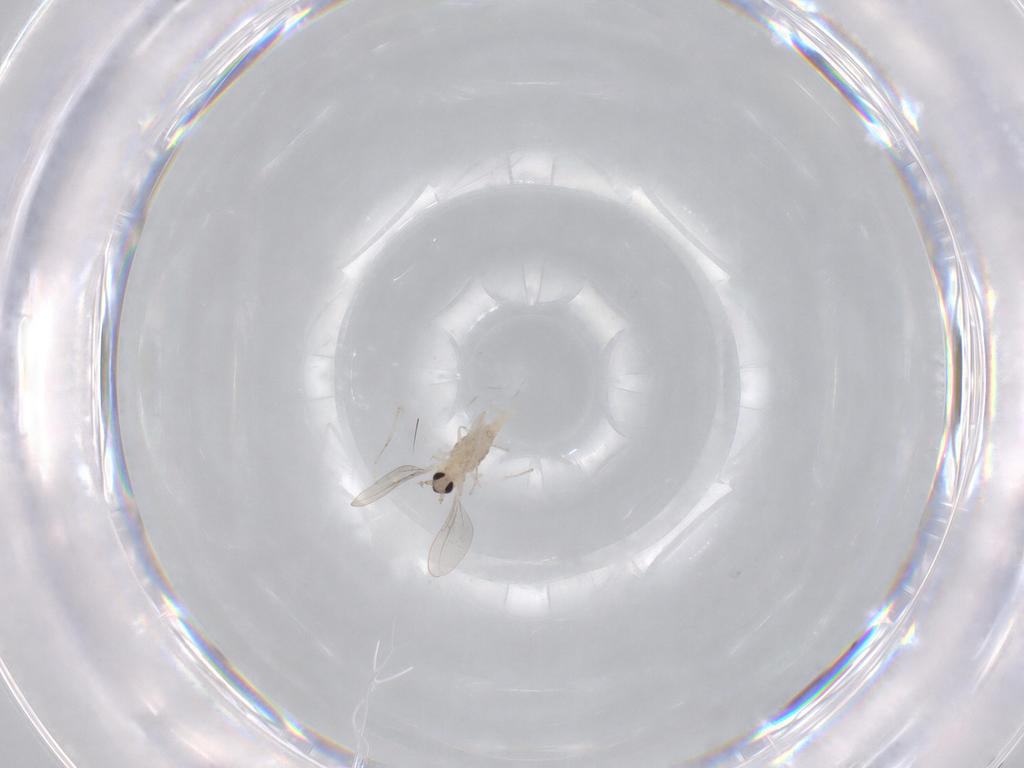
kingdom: Animalia
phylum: Arthropoda
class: Insecta
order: Diptera
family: Cecidomyiidae
